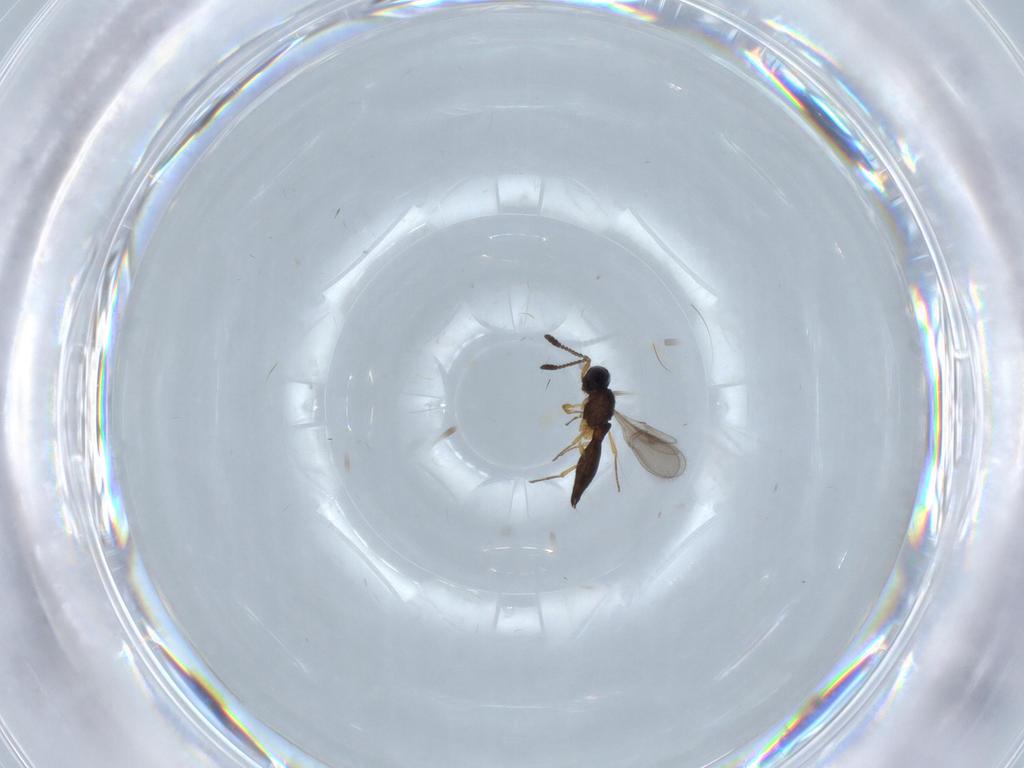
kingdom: Animalia
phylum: Arthropoda
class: Insecta
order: Hymenoptera
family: Scelionidae
